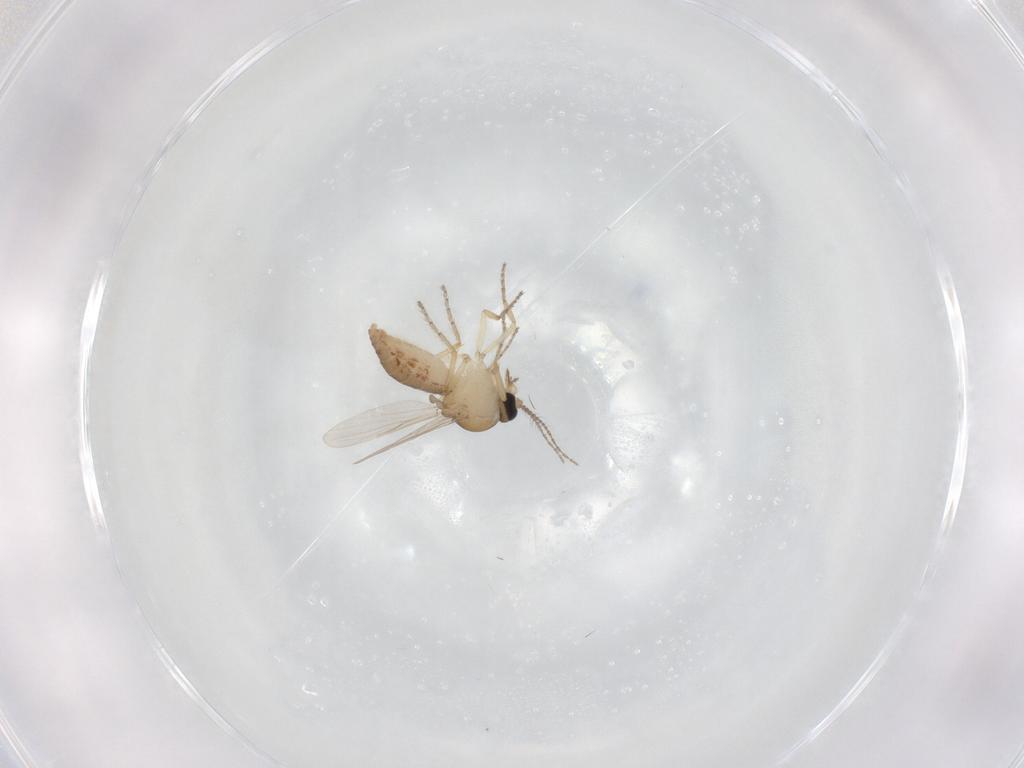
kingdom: Animalia
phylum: Arthropoda
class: Insecta
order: Diptera
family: Ceratopogonidae
